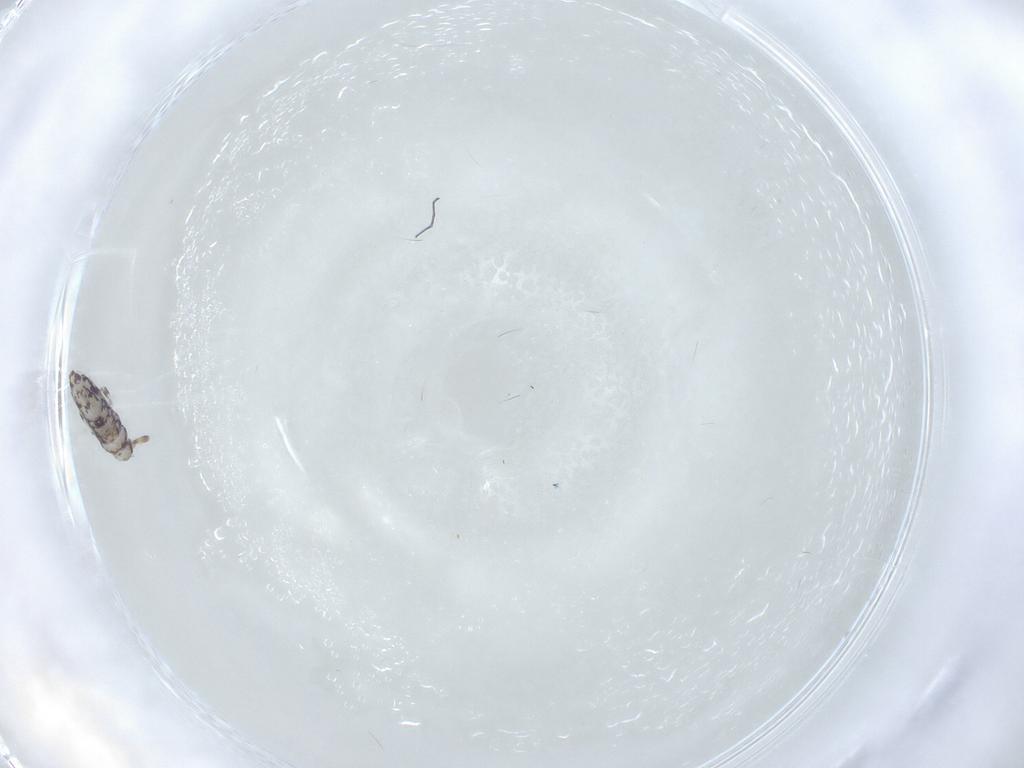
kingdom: Animalia
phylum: Arthropoda
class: Collembola
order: Entomobryomorpha
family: Entomobryidae
